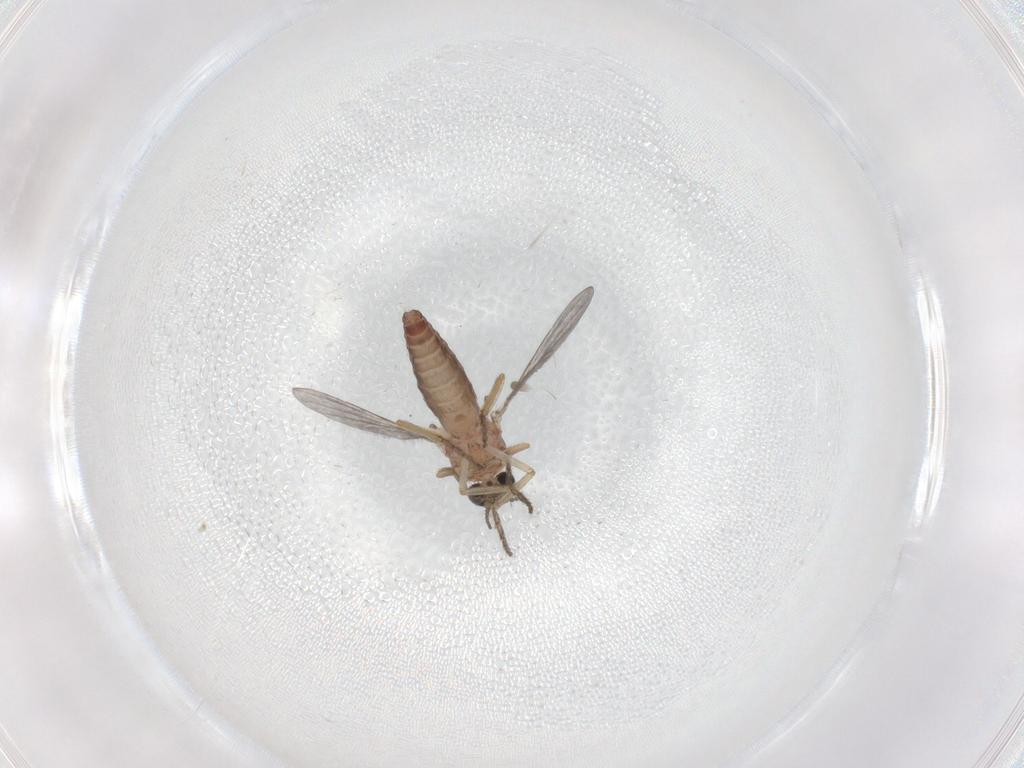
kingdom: Animalia
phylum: Arthropoda
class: Insecta
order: Diptera
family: Ceratopogonidae
